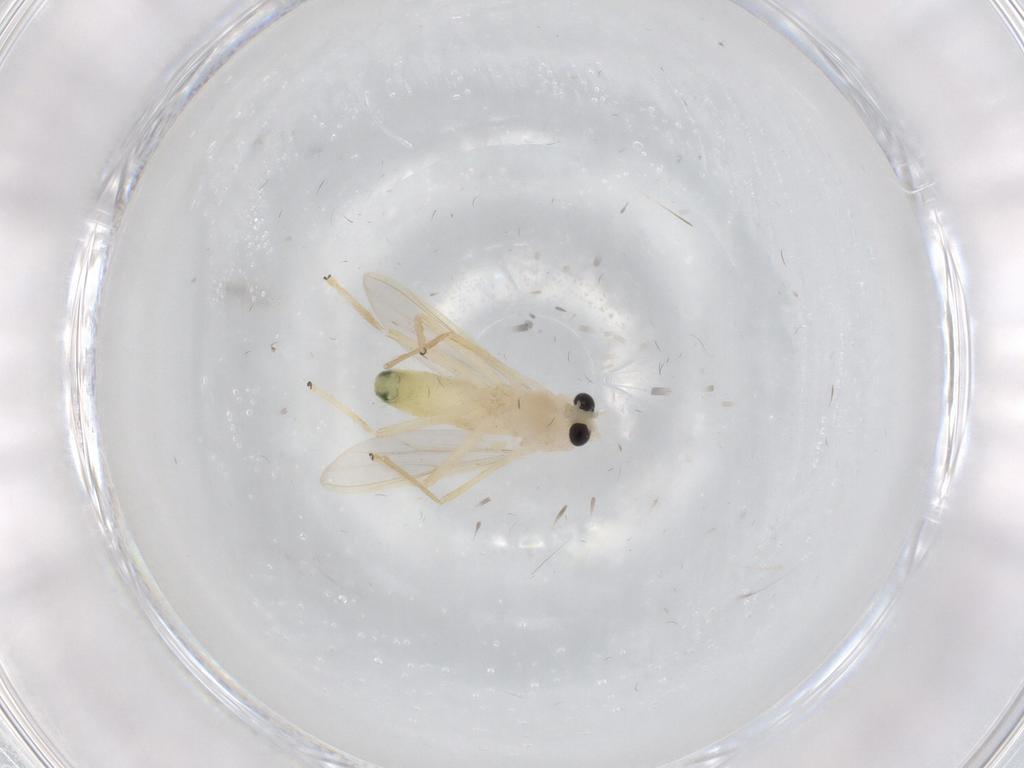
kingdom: Animalia
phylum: Arthropoda
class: Insecta
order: Diptera
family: Chironomidae
